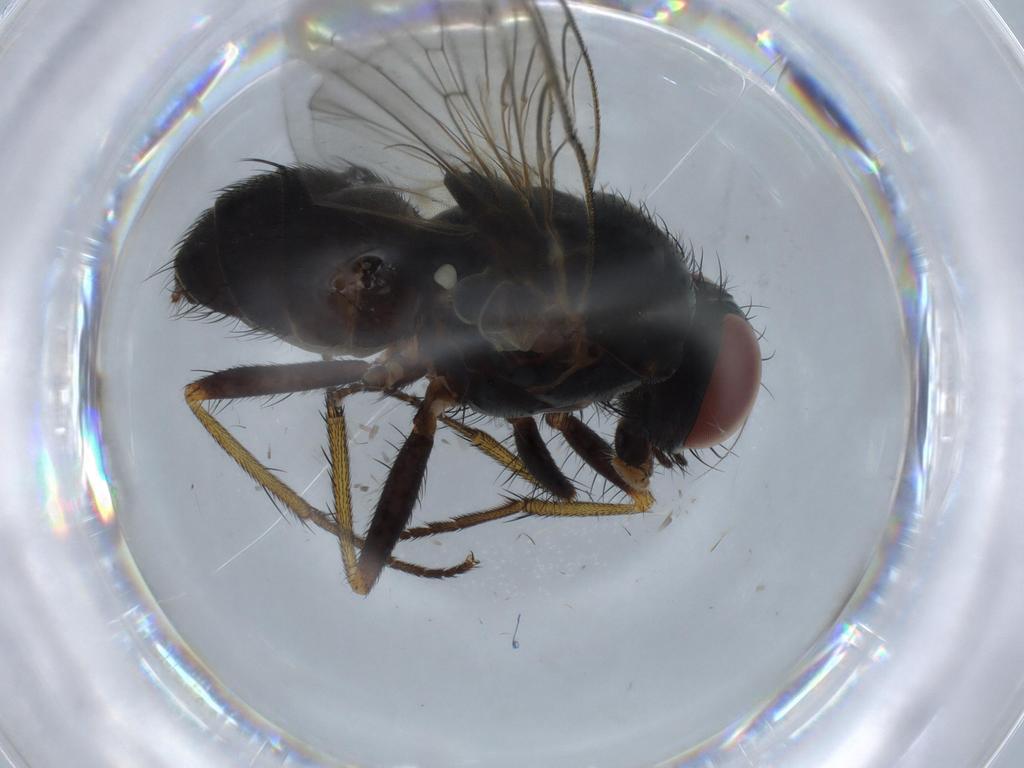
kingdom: Animalia
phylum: Arthropoda
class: Insecta
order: Diptera
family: Anthomyiidae
